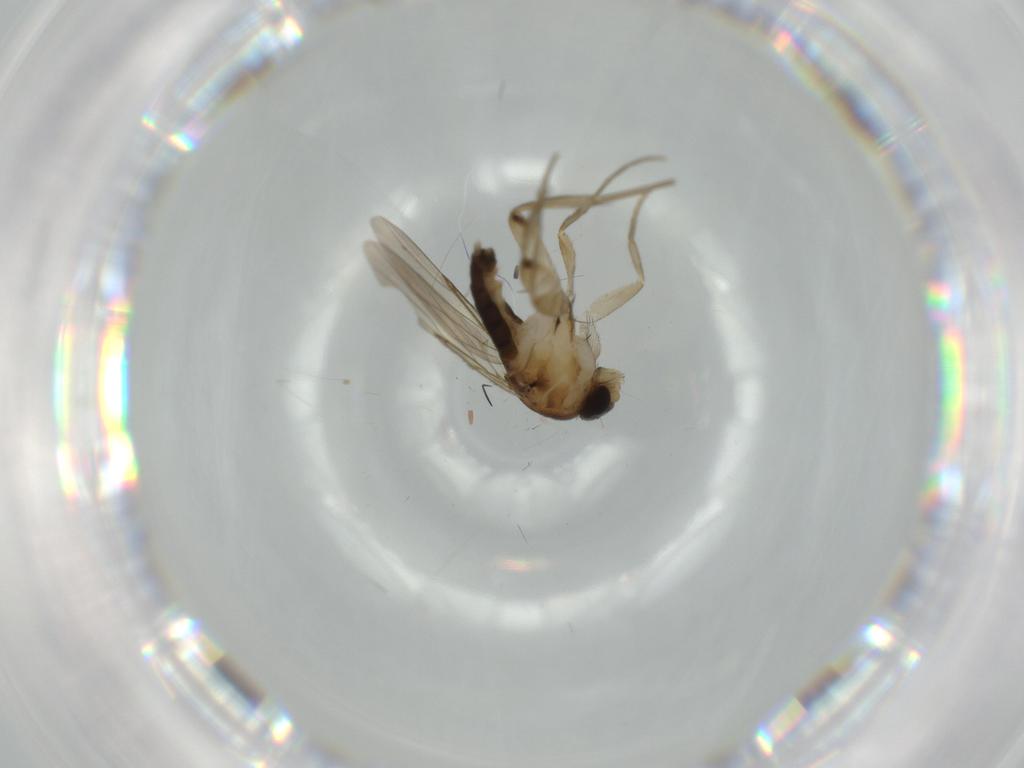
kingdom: Animalia
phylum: Arthropoda
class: Insecta
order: Diptera
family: Phoridae
